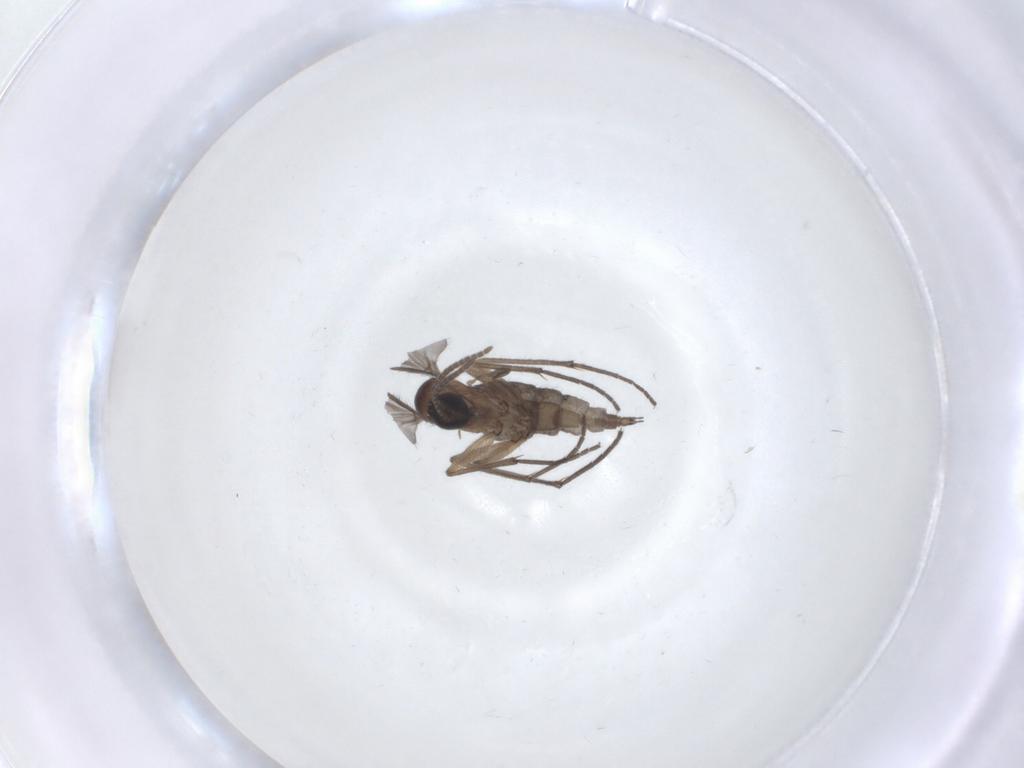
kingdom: Animalia
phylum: Arthropoda
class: Insecta
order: Diptera
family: Sciaridae
